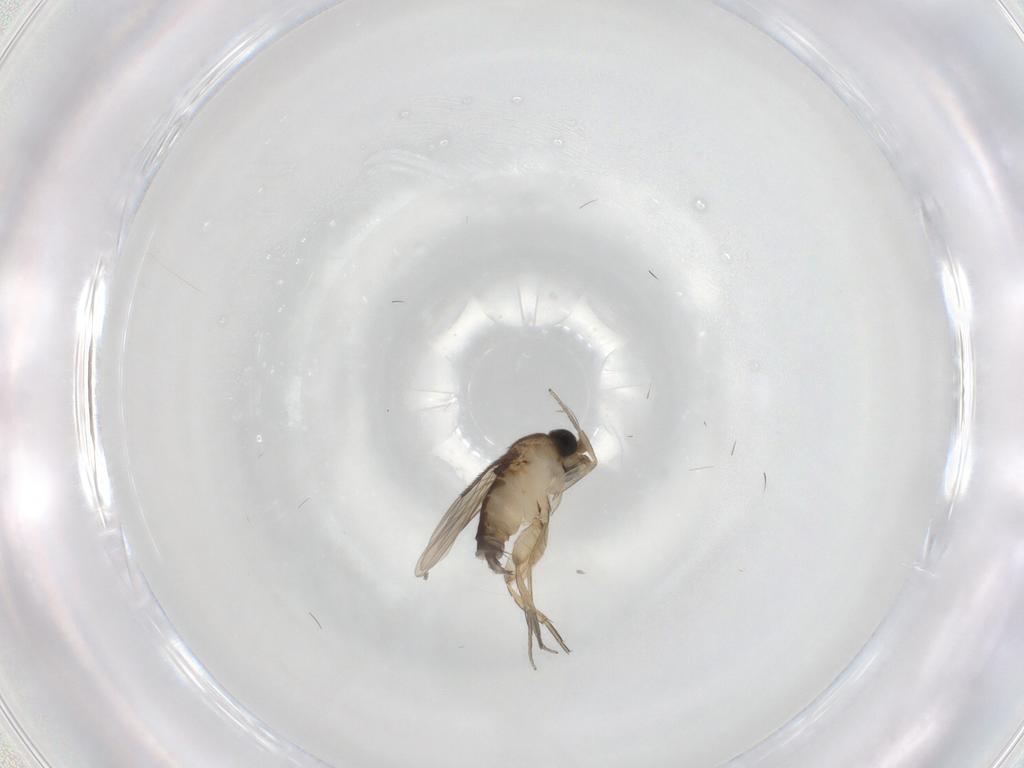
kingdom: Animalia
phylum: Arthropoda
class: Insecta
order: Diptera
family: Phoridae
